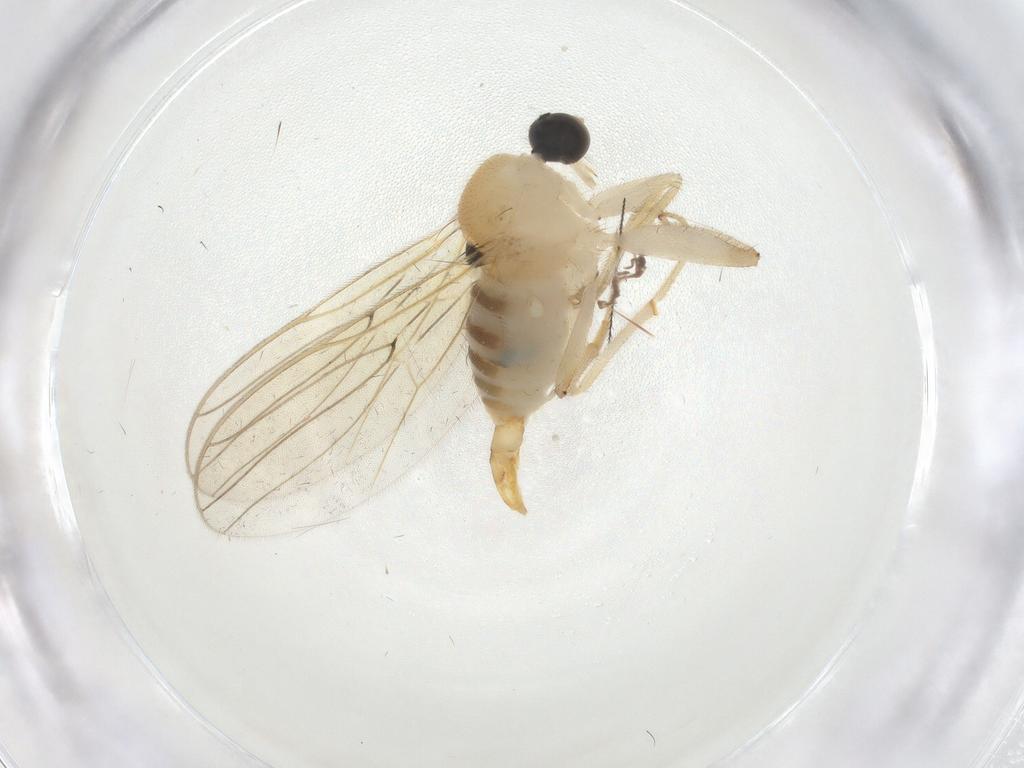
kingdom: Animalia
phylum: Arthropoda
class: Insecta
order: Diptera
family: Hybotidae
